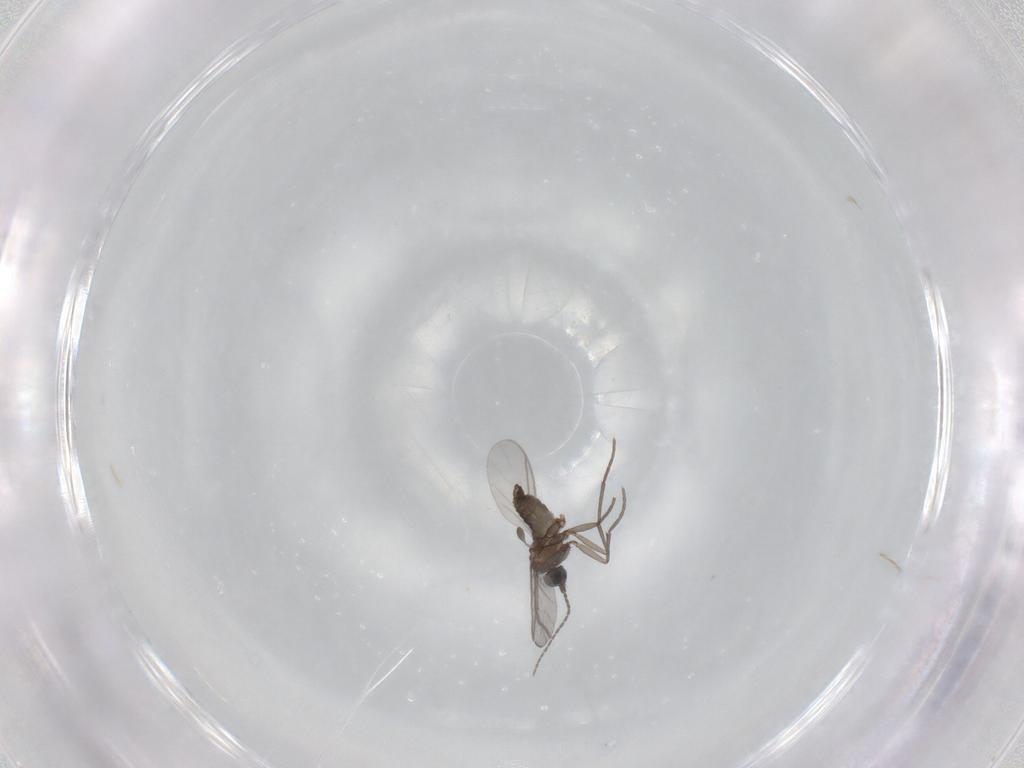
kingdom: Animalia
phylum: Arthropoda
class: Insecta
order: Diptera
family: Sciaridae
